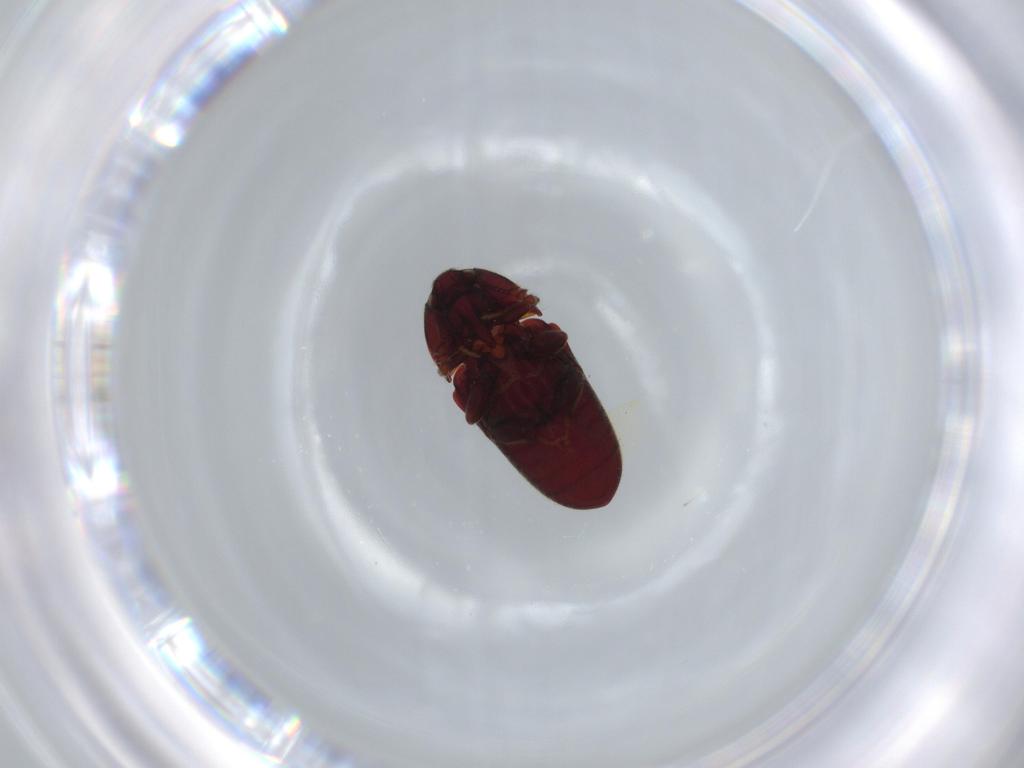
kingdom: Animalia
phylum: Arthropoda
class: Insecta
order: Coleoptera
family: Throscidae
